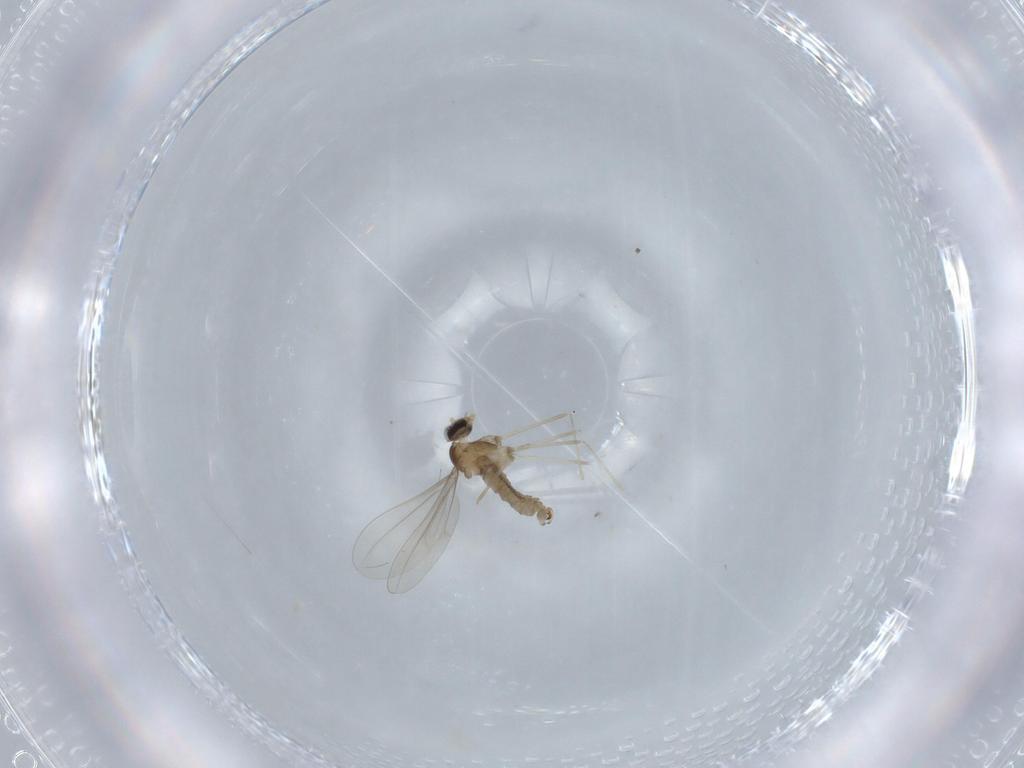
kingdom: Animalia
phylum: Arthropoda
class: Insecta
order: Diptera
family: Cecidomyiidae
